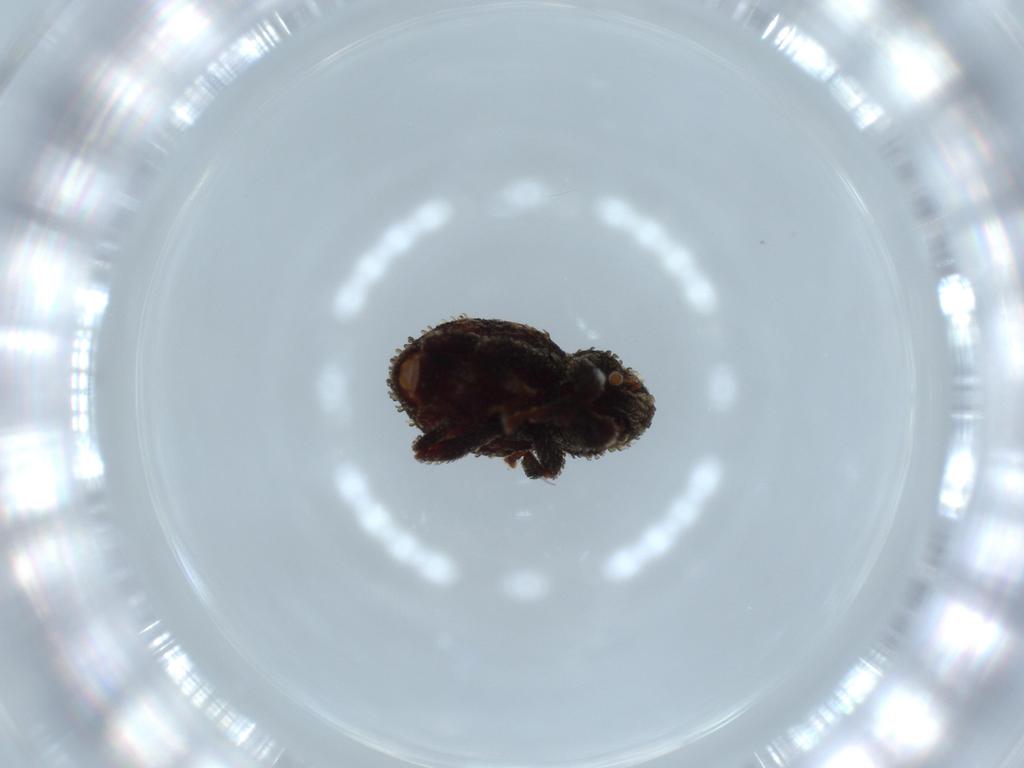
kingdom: Animalia
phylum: Arthropoda
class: Insecta
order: Coleoptera
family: Curculionidae
